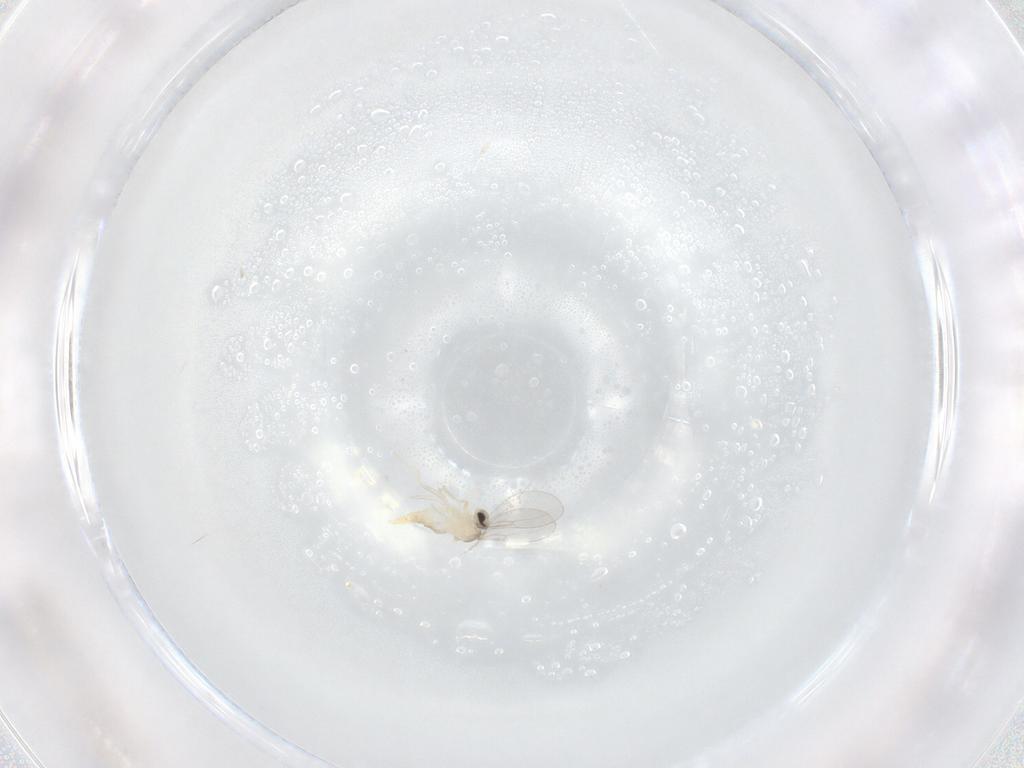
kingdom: Animalia
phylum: Arthropoda
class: Insecta
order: Diptera
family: Cecidomyiidae
